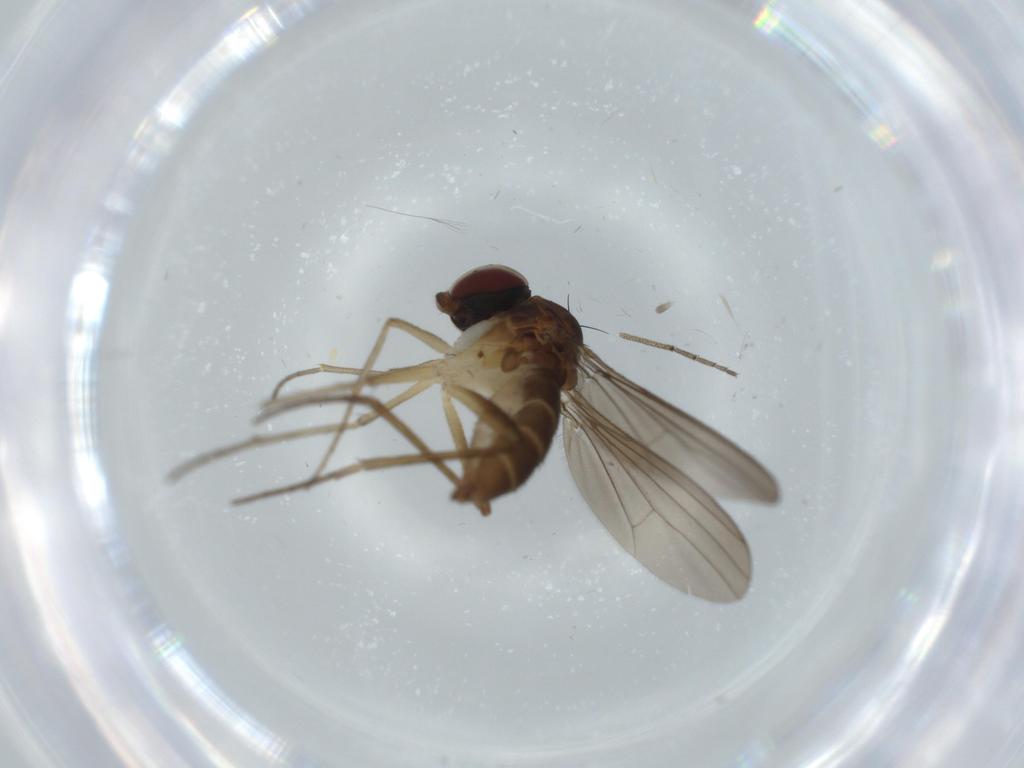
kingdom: Animalia
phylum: Arthropoda
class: Insecta
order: Diptera
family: Dolichopodidae
